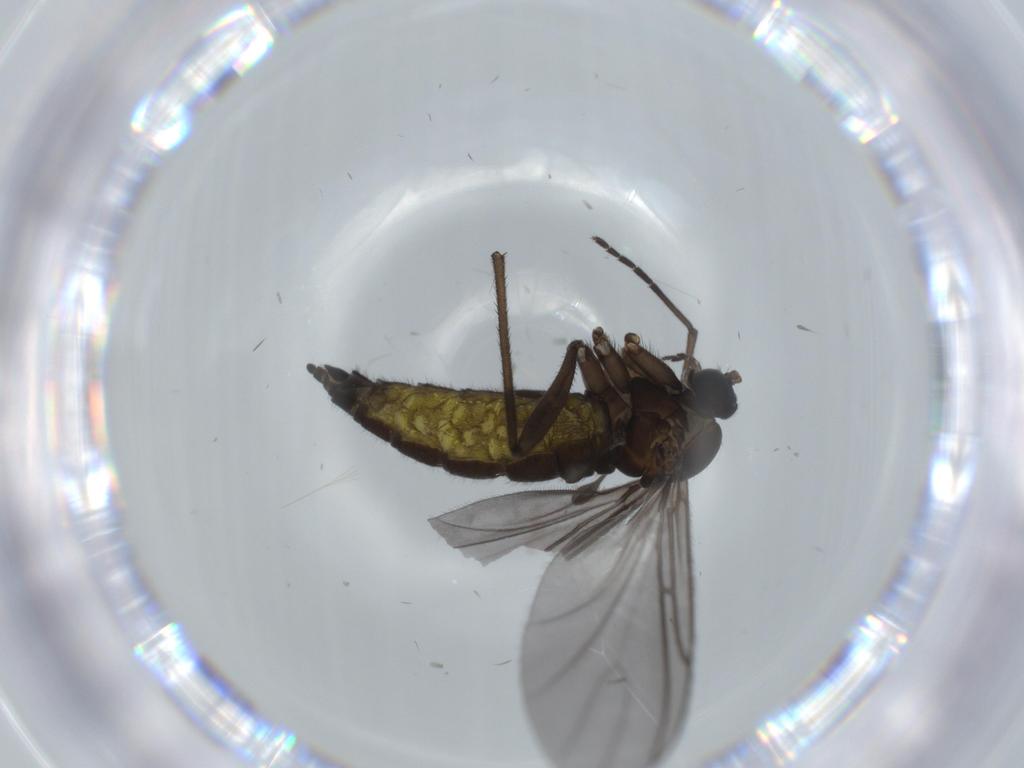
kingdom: Animalia
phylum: Arthropoda
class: Insecta
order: Diptera
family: Sciaridae
